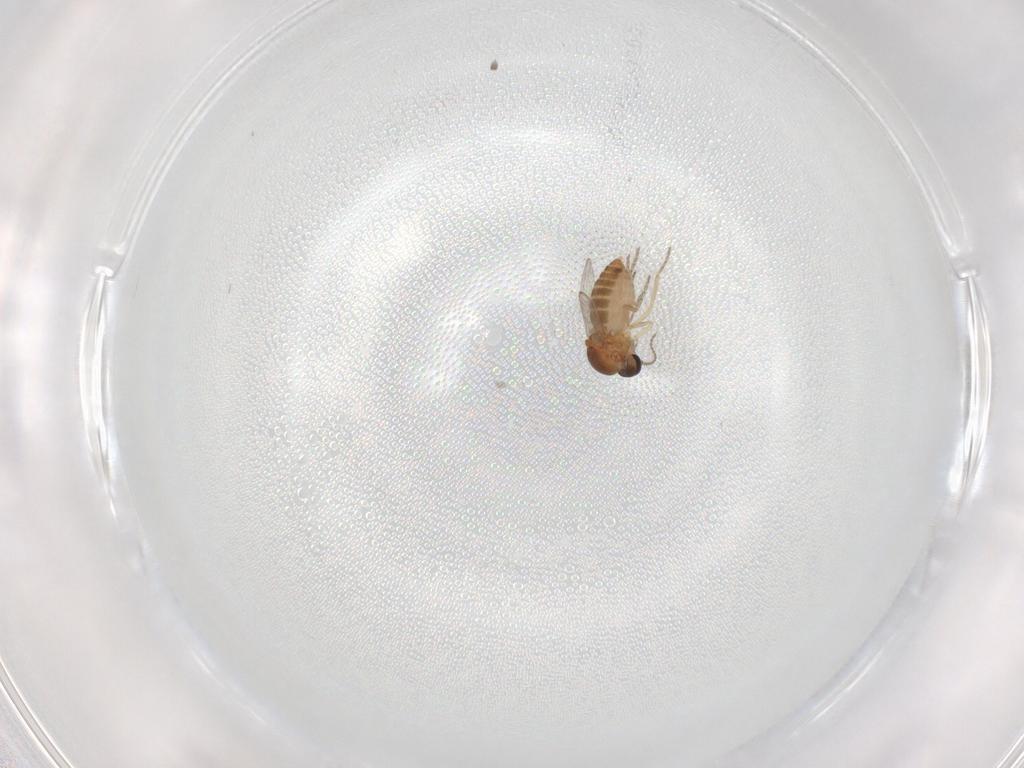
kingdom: Animalia
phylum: Arthropoda
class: Insecta
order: Diptera
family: Ceratopogonidae
